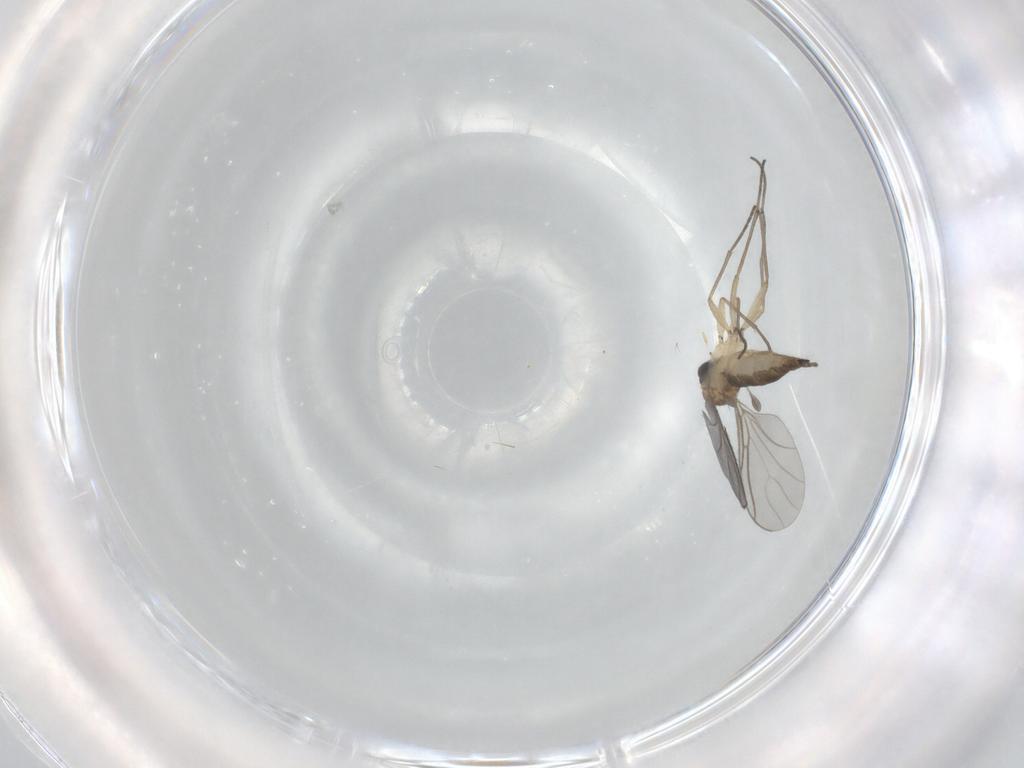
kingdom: Animalia
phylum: Arthropoda
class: Insecta
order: Diptera
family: Sciaridae
